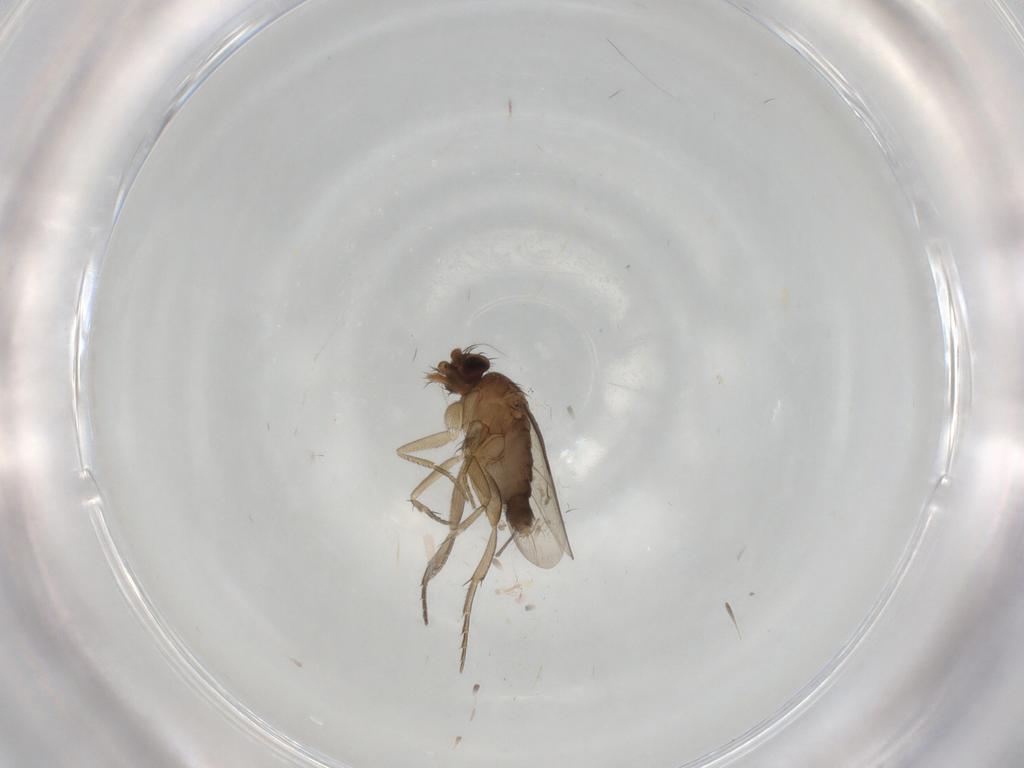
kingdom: Animalia
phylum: Arthropoda
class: Insecta
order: Diptera
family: Phoridae
